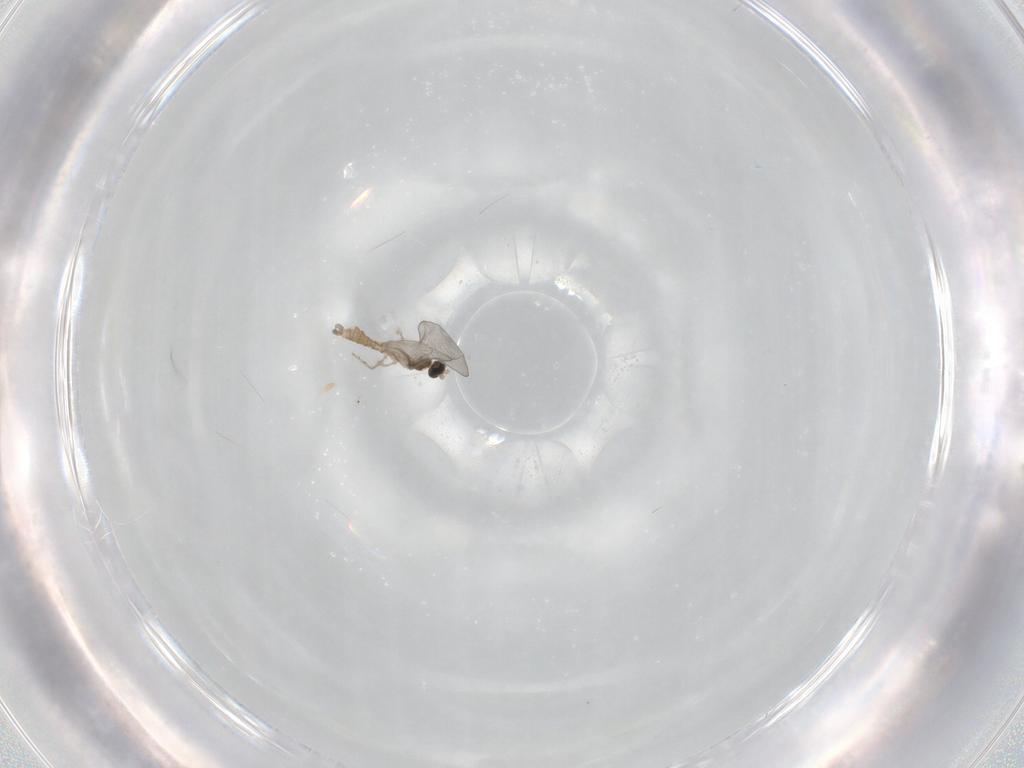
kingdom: Animalia
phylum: Arthropoda
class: Insecta
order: Diptera
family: Cecidomyiidae
